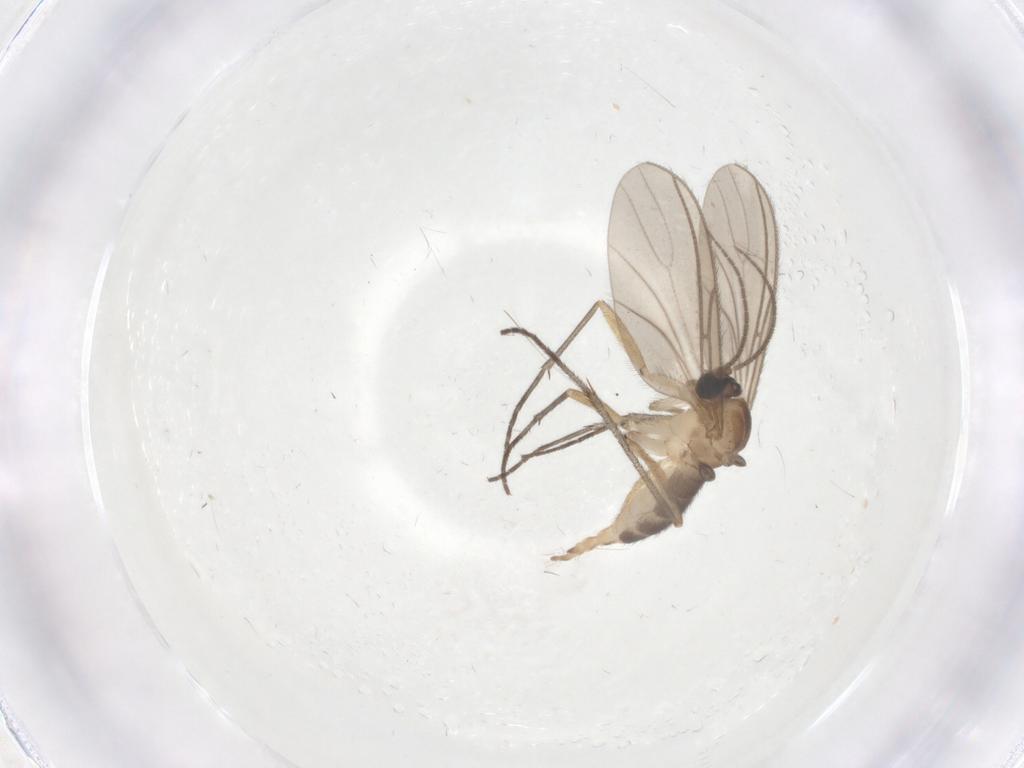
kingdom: Animalia
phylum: Arthropoda
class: Insecta
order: Diptera
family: Sciaridae
